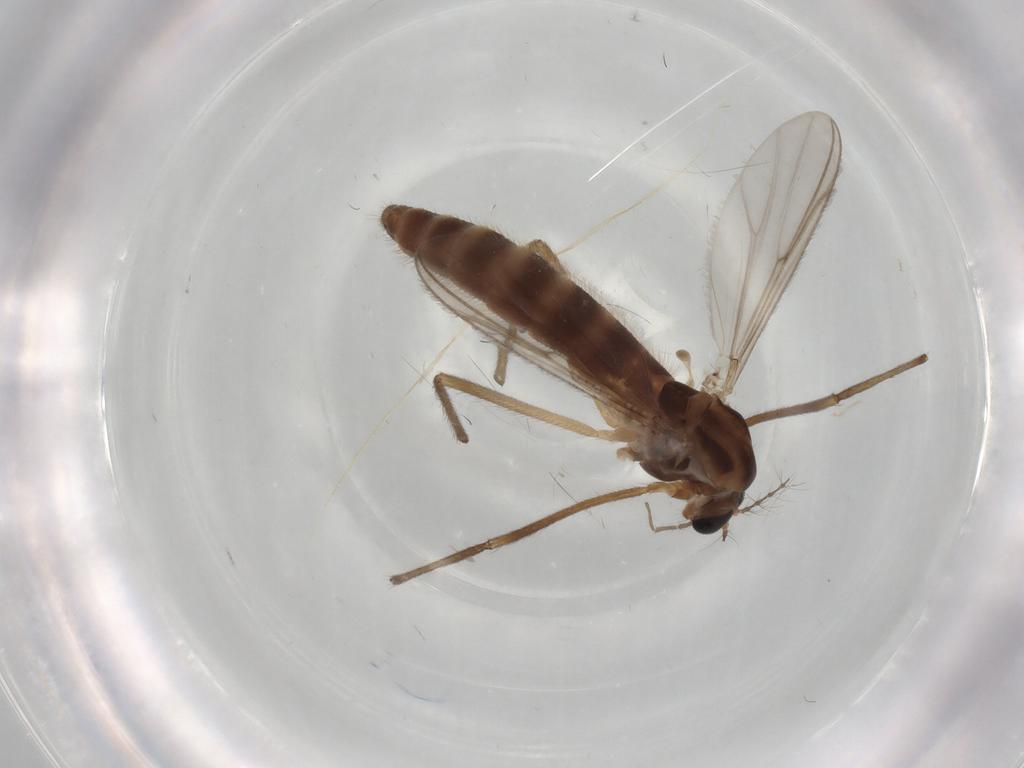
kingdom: Animalia
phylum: Arthropoda
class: Insecta
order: Diptera
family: Chironomidae
